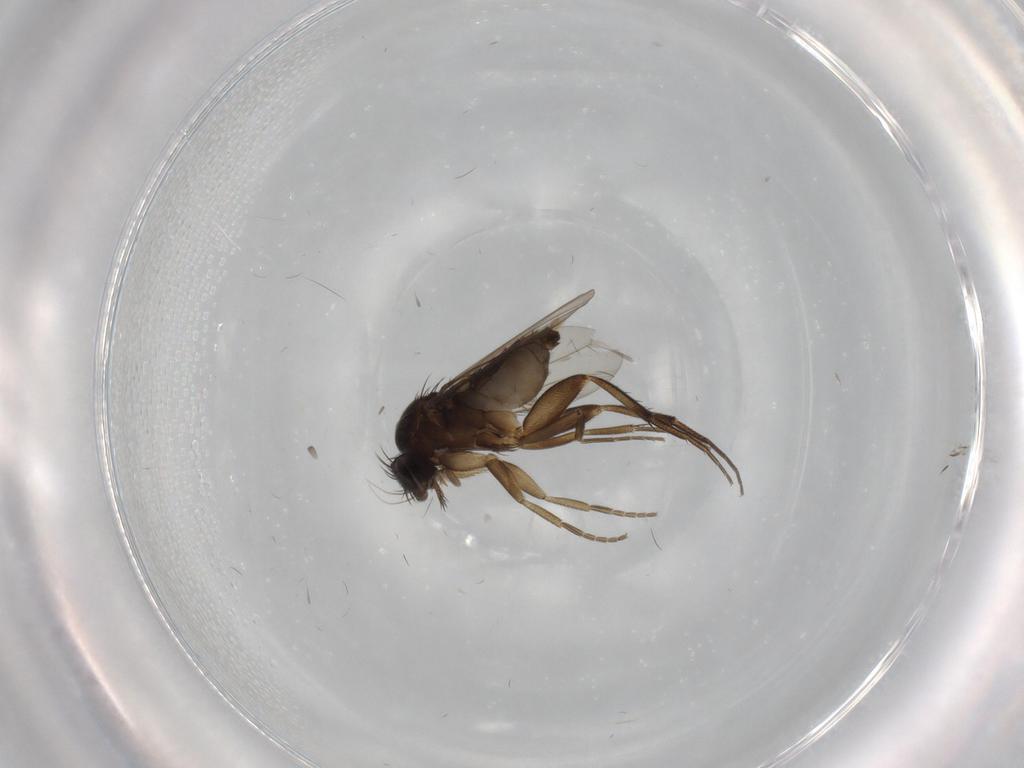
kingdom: Animalia
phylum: Arthropoda
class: Insecta
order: Diptera
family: Phoridae
